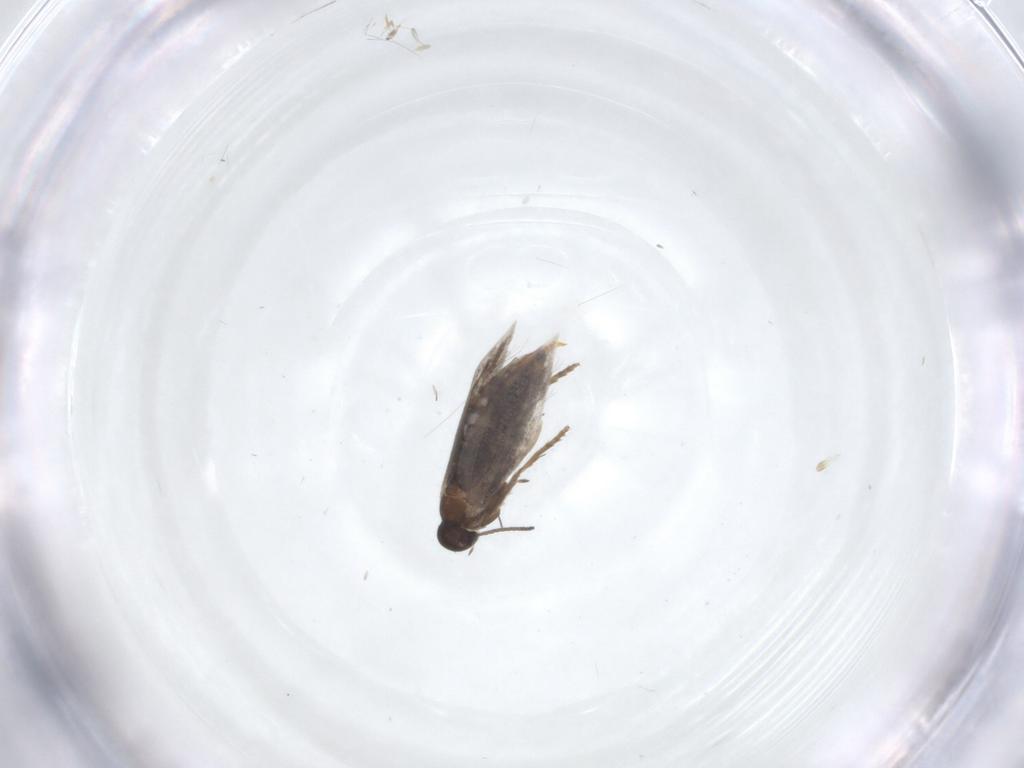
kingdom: Animalia
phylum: Arthropoda
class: Insecta
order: Lepidoptera
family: Heliozelidae
